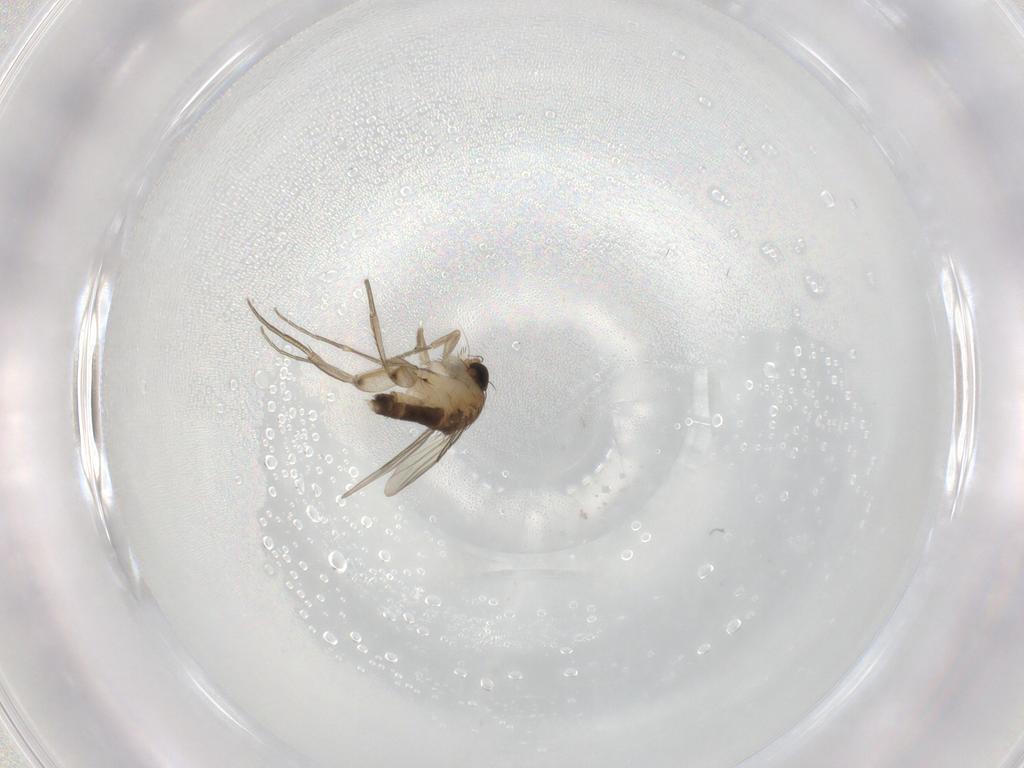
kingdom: Animalia
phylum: Arthropoda
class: Insecta
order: Diptera
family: Phoridae
